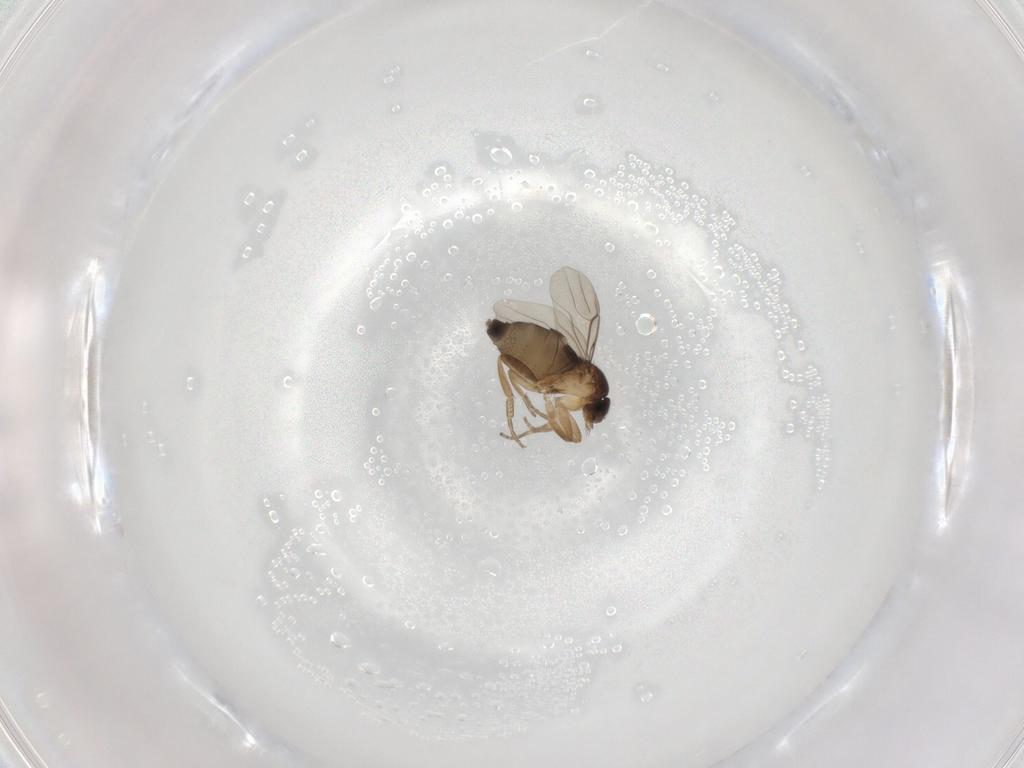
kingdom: Animalia
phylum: Arthropoda
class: Insecta
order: Diptera
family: Phoridae
